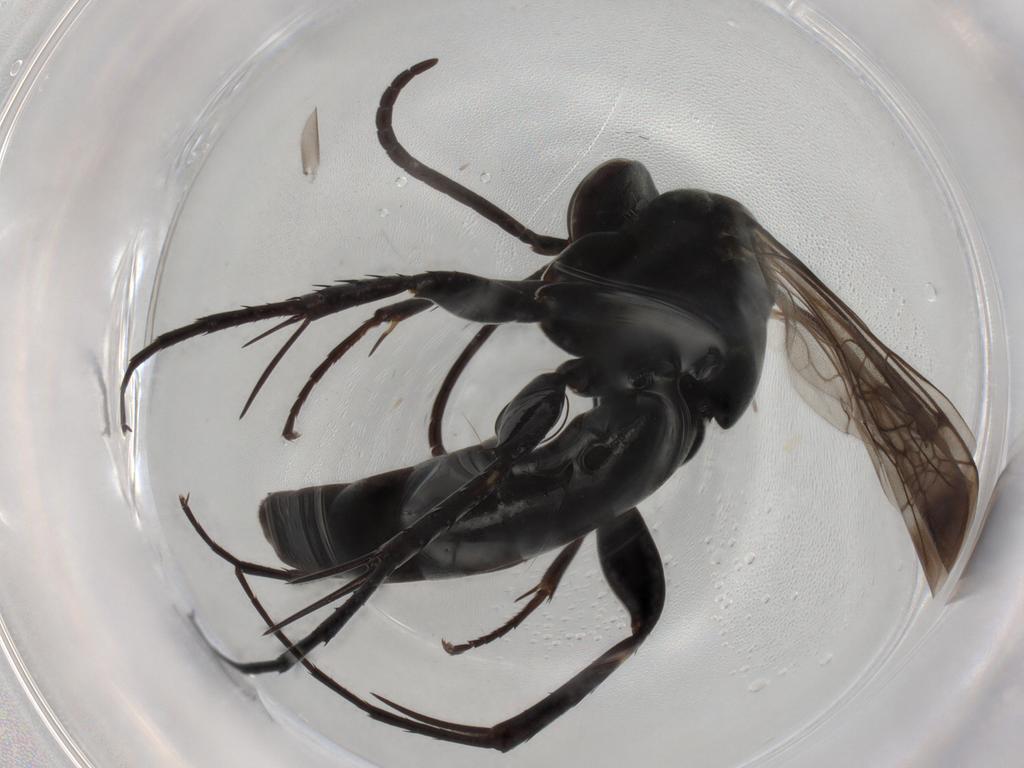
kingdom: Animalia
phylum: Arthropoda
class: Insecta
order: Hymenoptera
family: Pompilidae
